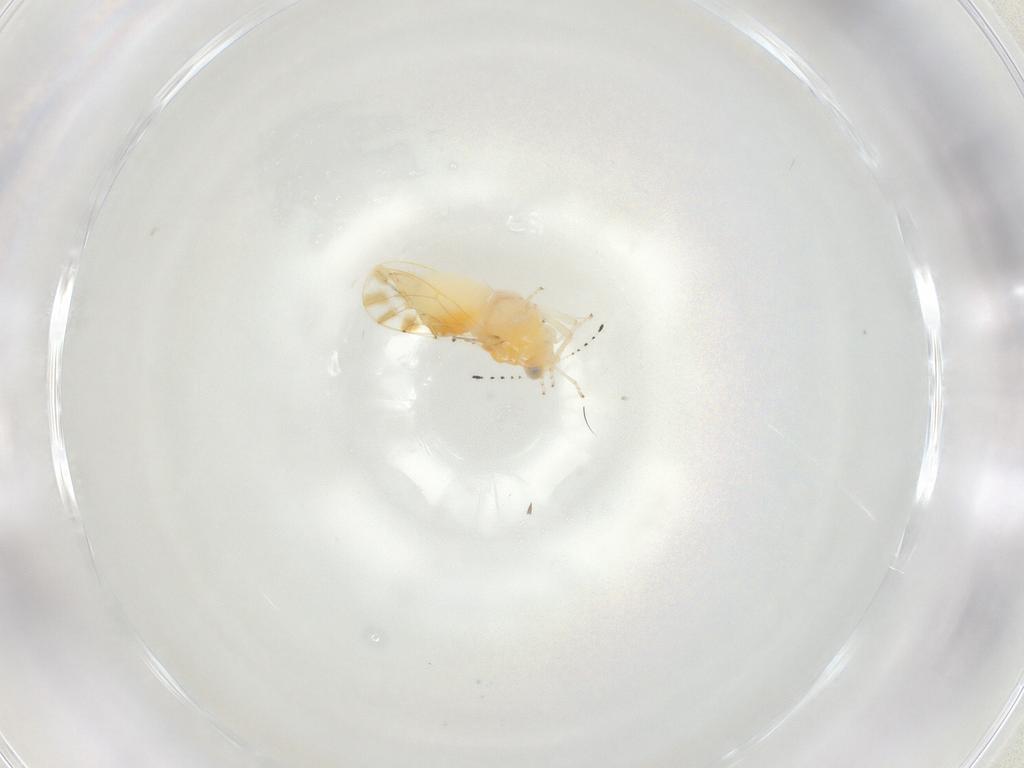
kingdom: Animalia
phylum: Arthropoda
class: Insecta
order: Hemiptera
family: Aphalaridae
